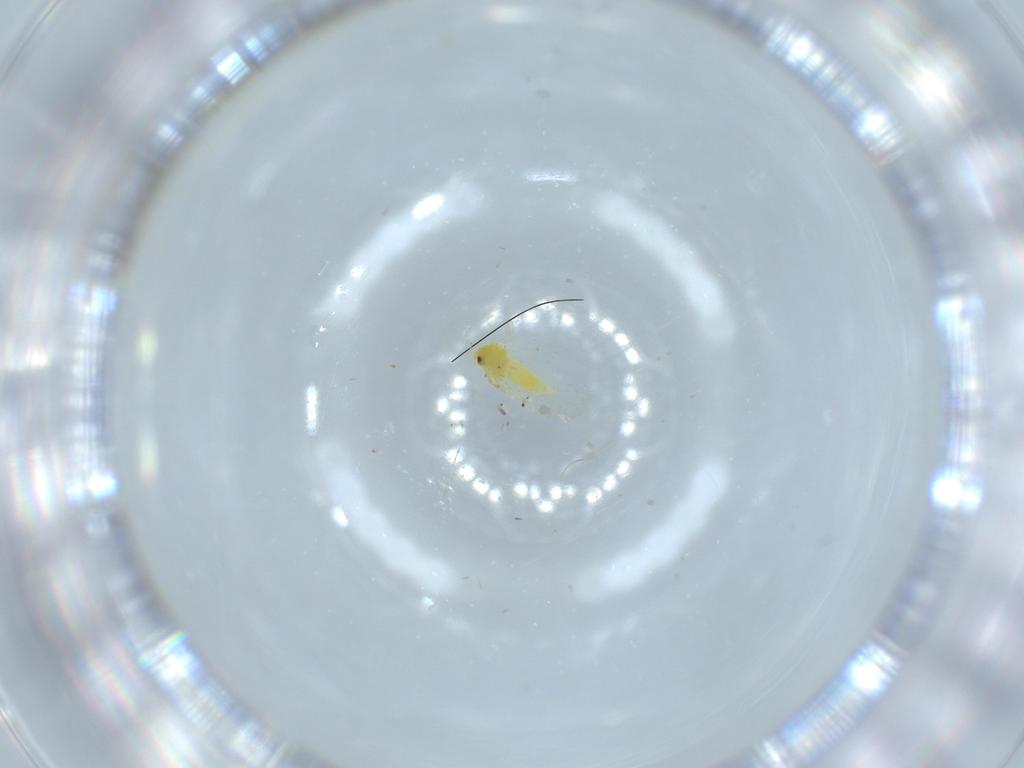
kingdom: Animalia
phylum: Arthropoda
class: Insecta
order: Hemiptera
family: Aleyrodidae
